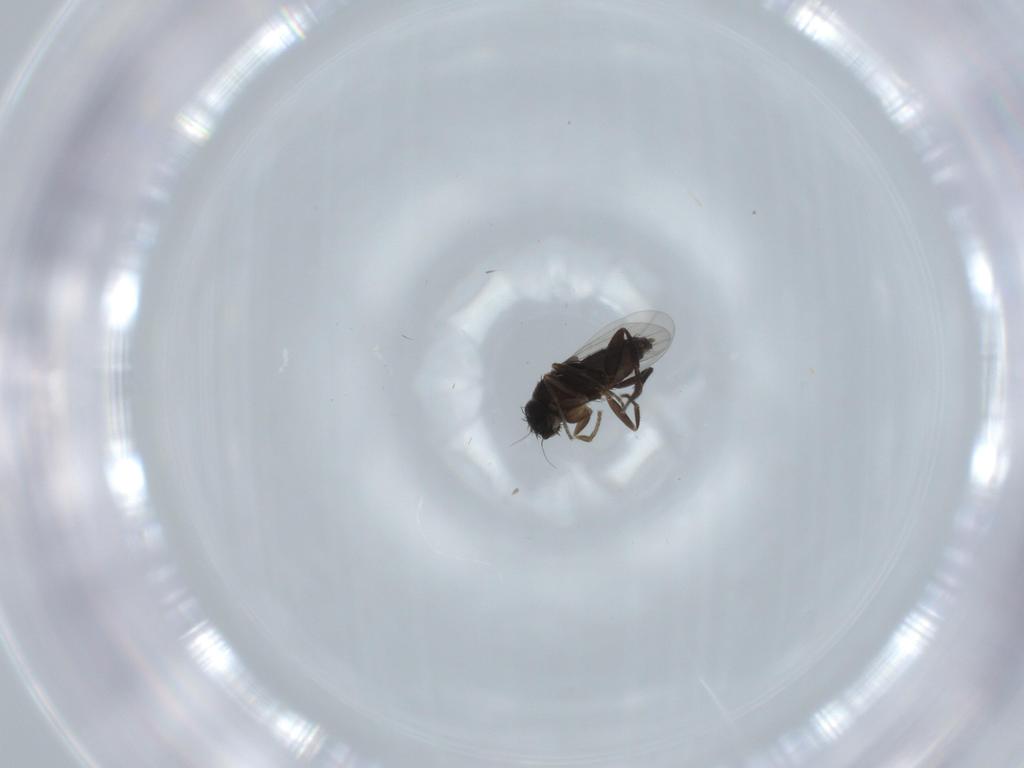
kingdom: Animalia
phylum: Arthropoda
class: Insecta
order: Diptera
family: Phoridae
